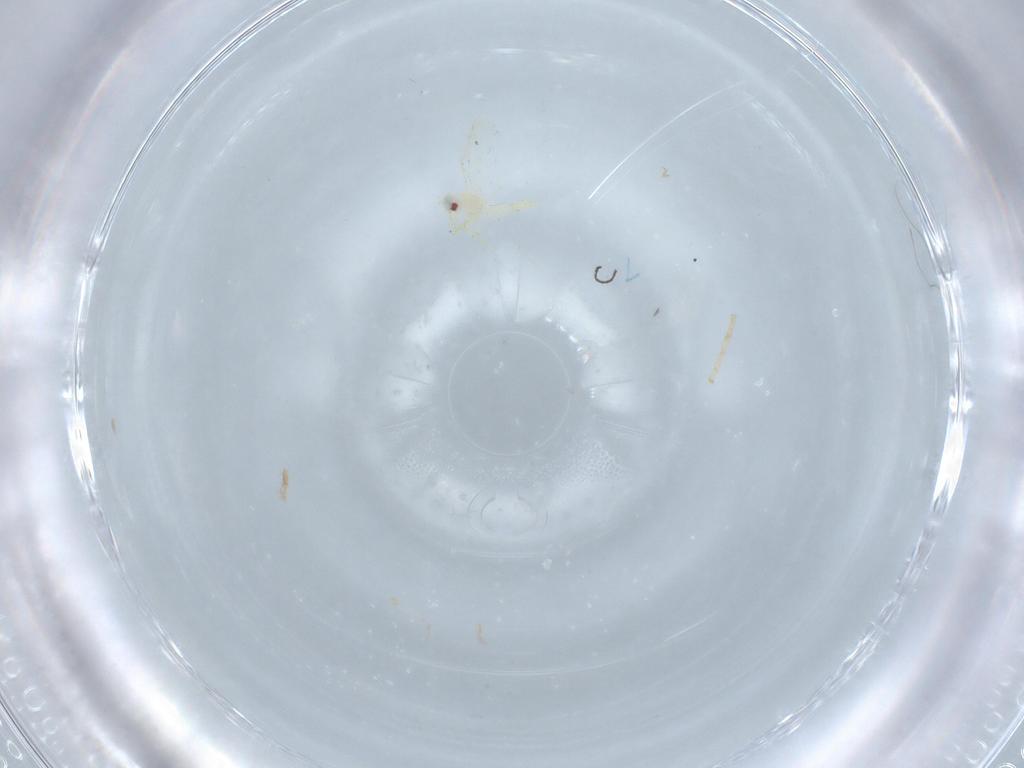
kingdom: Animalia
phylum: Arthropoda
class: Insecta
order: Hemiptera
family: Aleyrodidae
